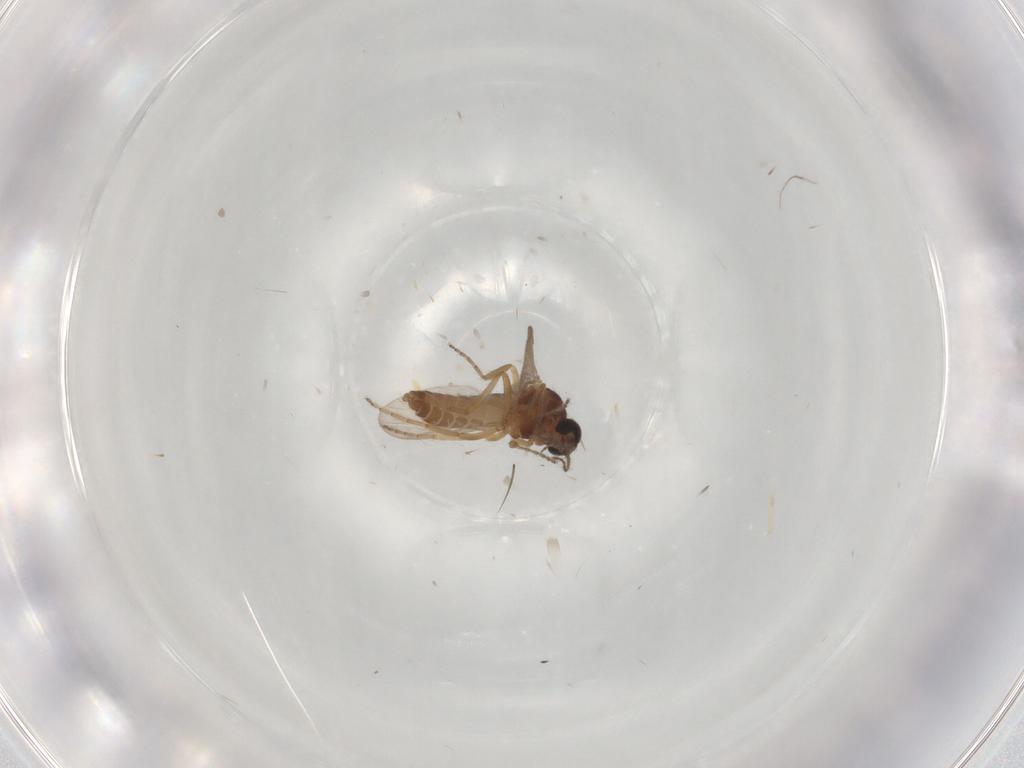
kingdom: Animalia
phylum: Arthropoda
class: Insecta
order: Diptera
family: Ceratopogonidae
